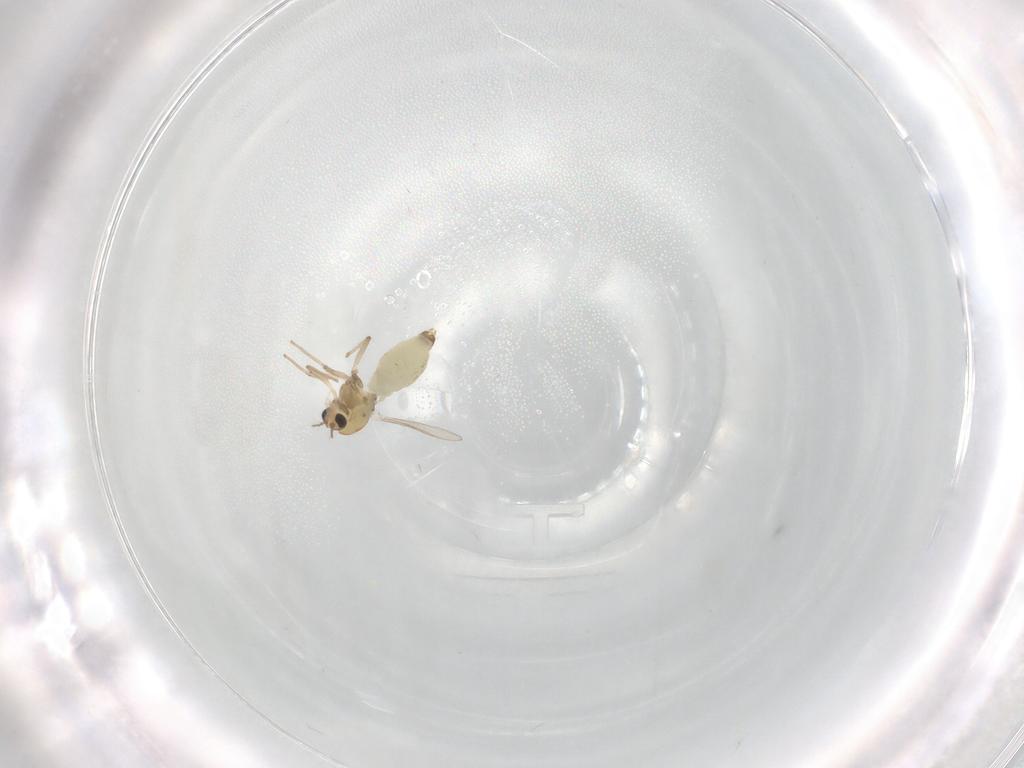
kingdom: Animalia
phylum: Arthropoda
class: Insecta
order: Diptera
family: Chironomidae
